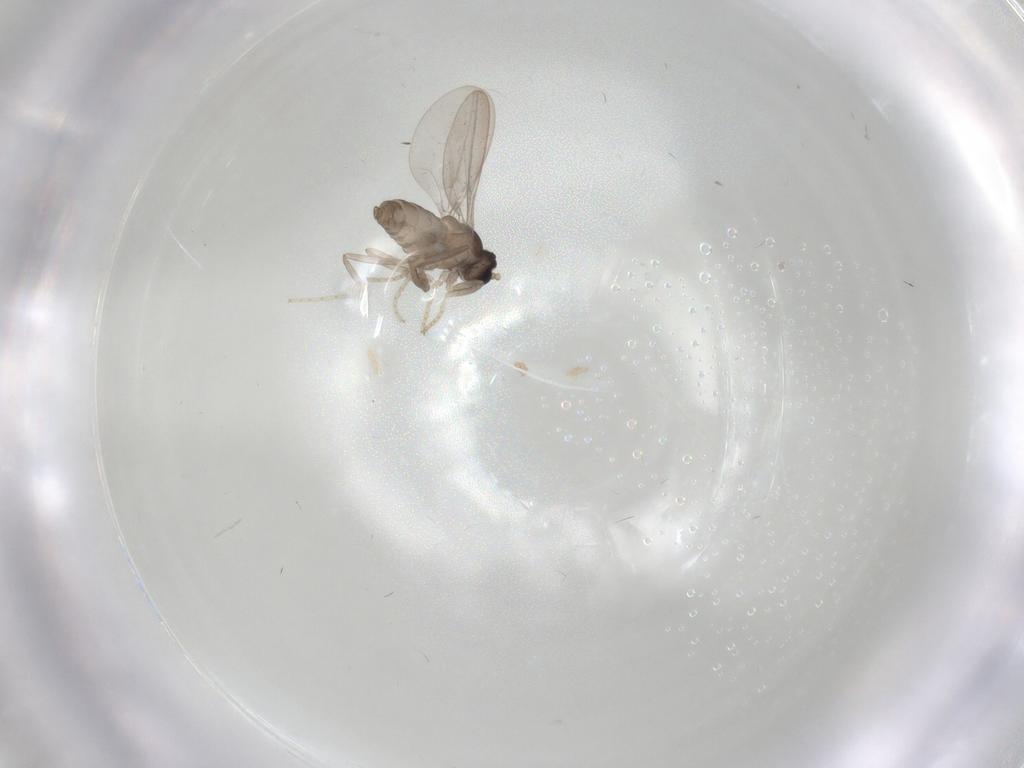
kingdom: Animalia
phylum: Arthropoda
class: Insecta
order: Diptera
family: Cecidomyiidae
